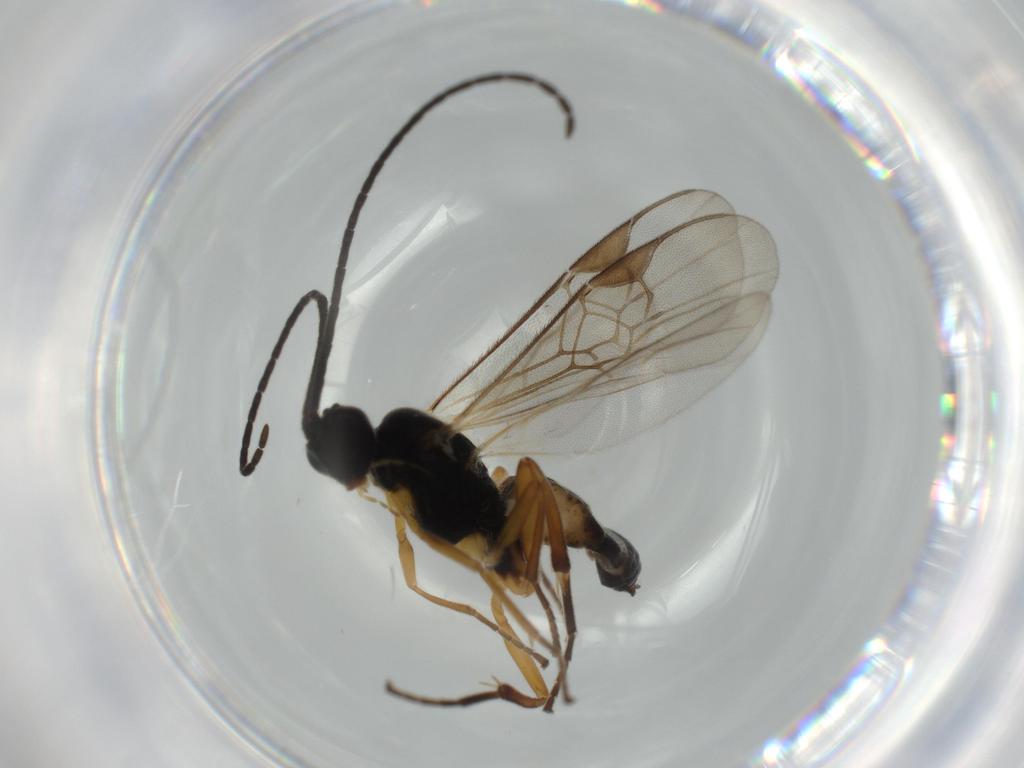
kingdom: Animalia
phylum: Arthropoda
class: Insecta
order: Hymenoptera
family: Braconidae
